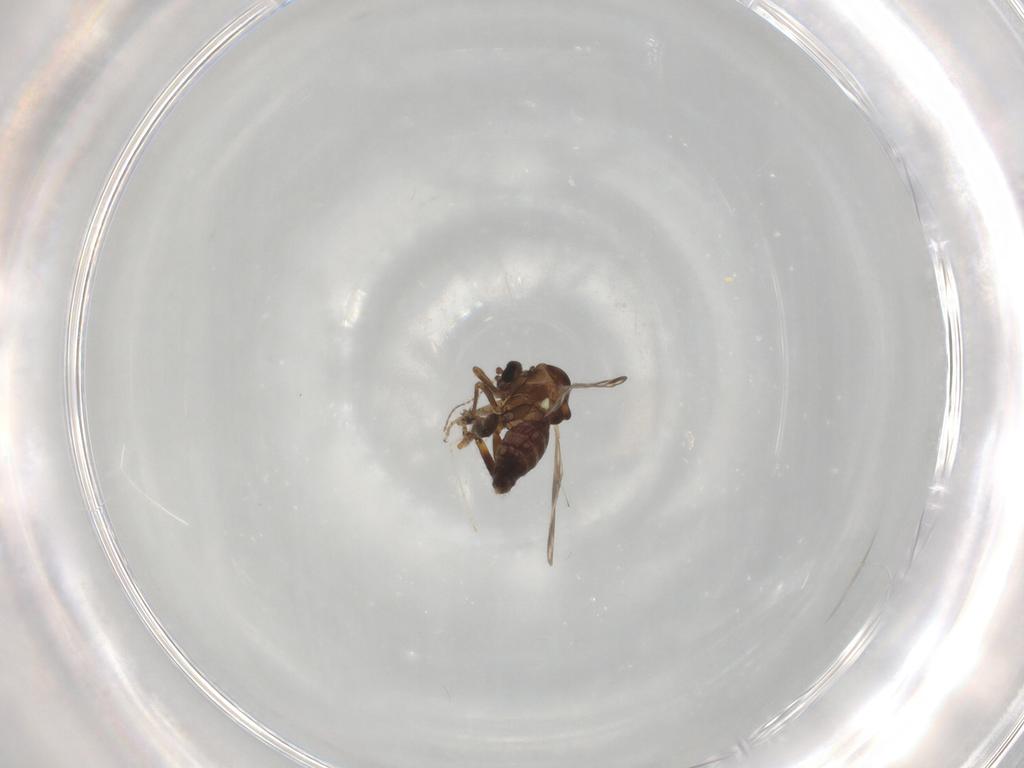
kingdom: Animalia
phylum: Arthropoda
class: Insecta
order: Diptera
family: Ceratopogonidae
